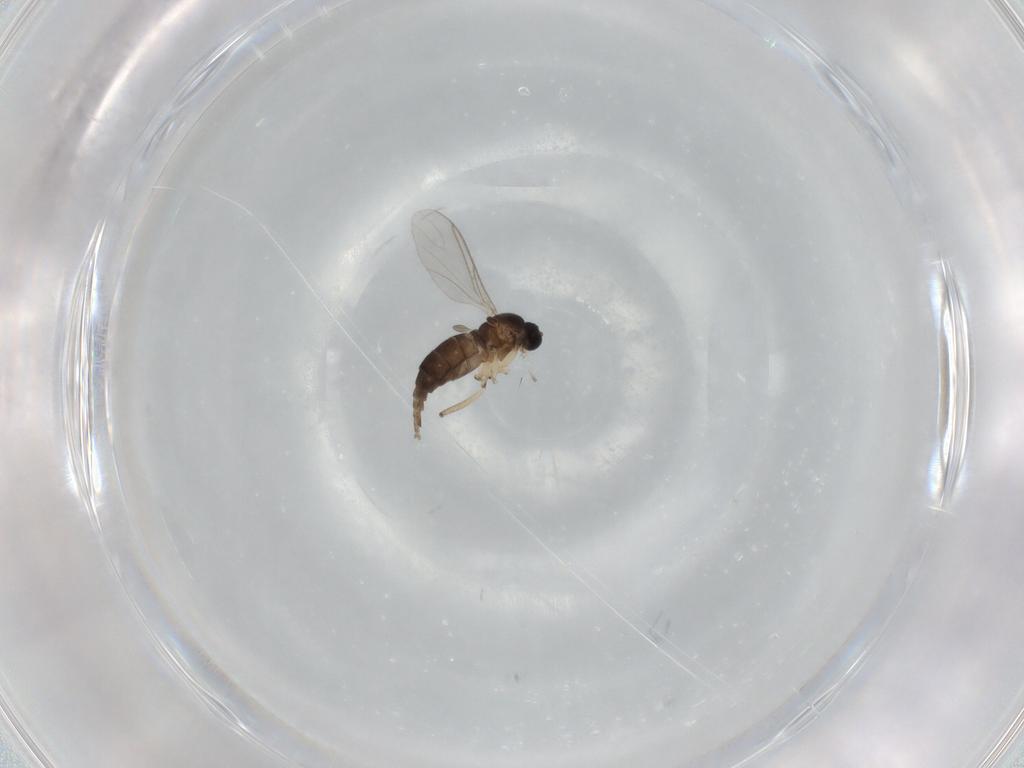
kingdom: Animalia
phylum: Arthropoda
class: Insecta
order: Diptera
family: Sciaridae
